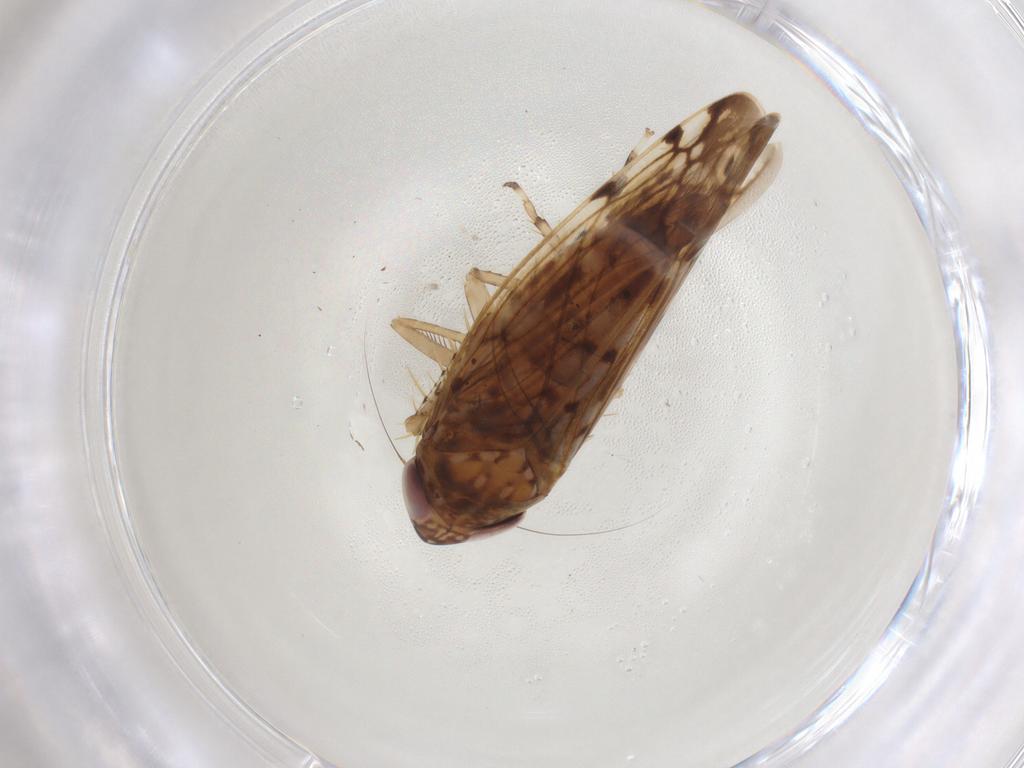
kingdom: Animalia
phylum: Arthropoda
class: Insecta
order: Hemiptera
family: Cicadellidae
